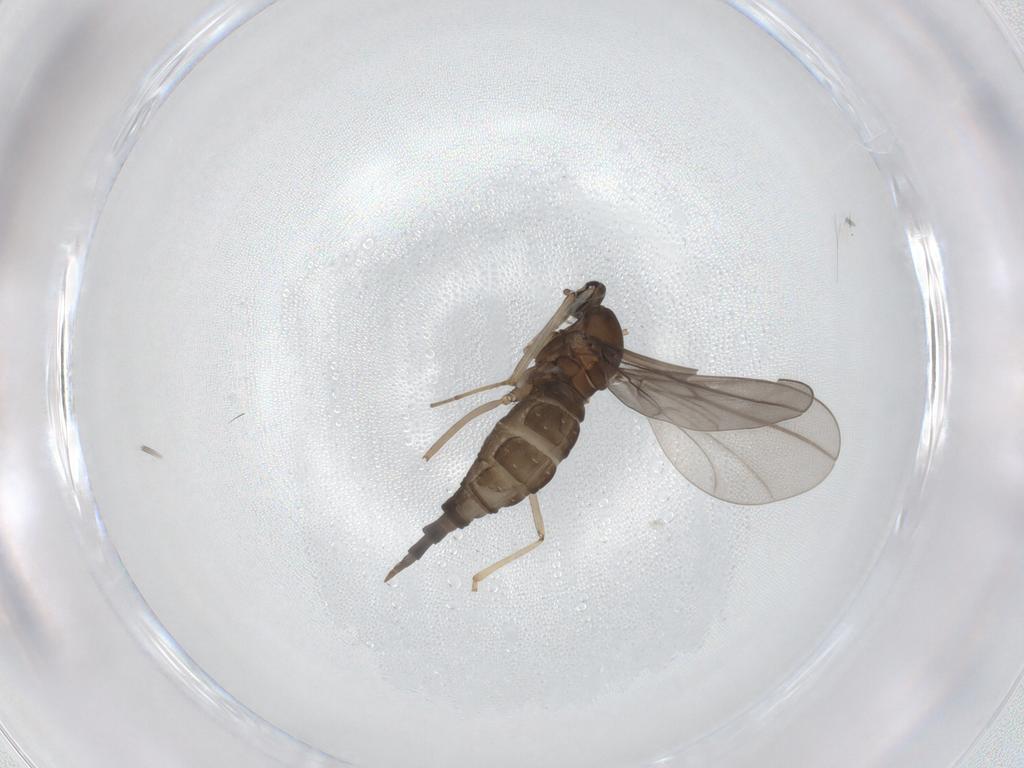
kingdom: Animalia
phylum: Arthropoda
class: Insecta
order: Diptera
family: Cecidomyiidae
